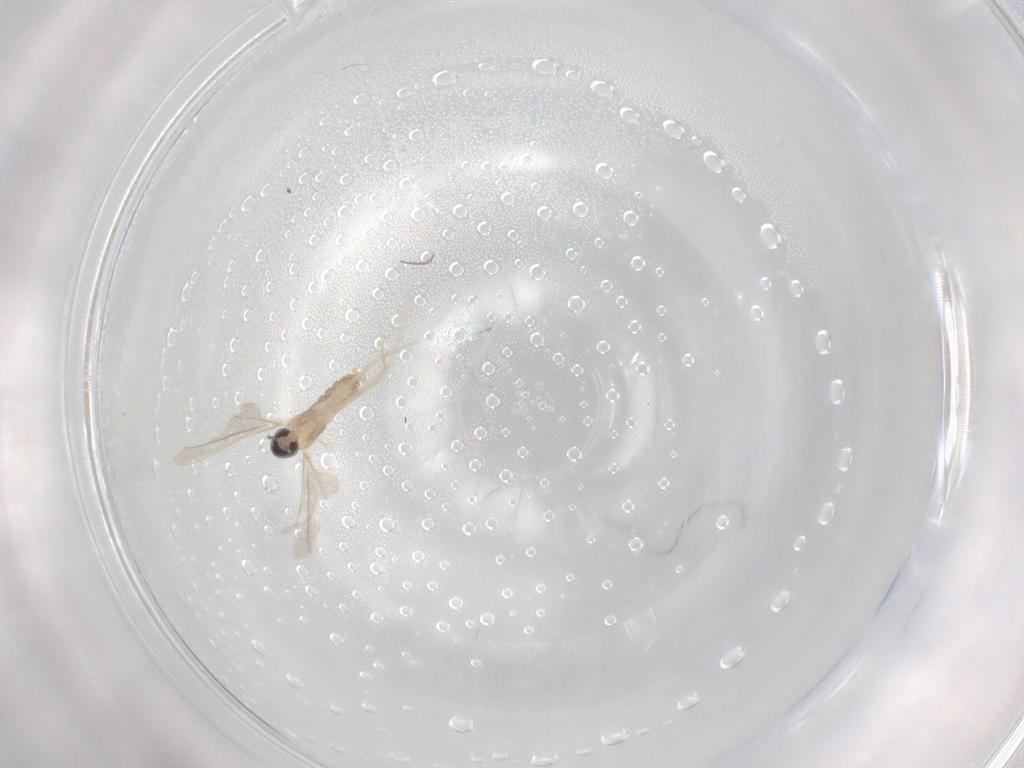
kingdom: Animalia
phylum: Arthropoda
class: Insecta
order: Diptera
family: Cecidomyiidae
